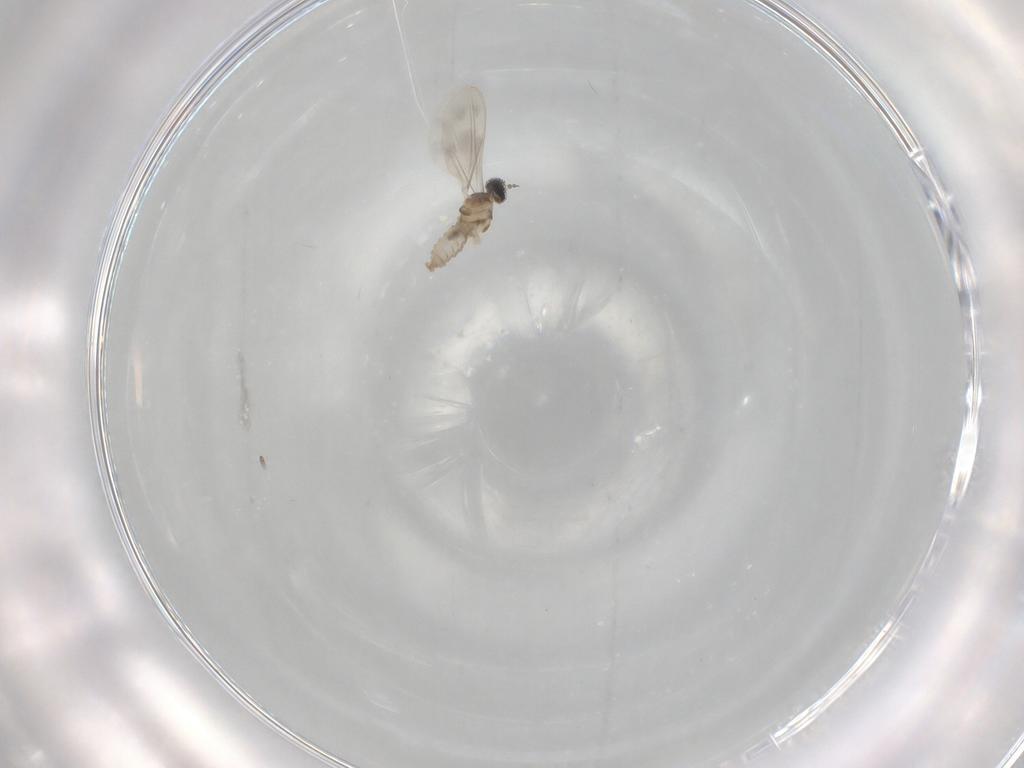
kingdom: Animalia
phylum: Arthropoda
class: Insecta
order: Diptera
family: Cecidomyiidae
